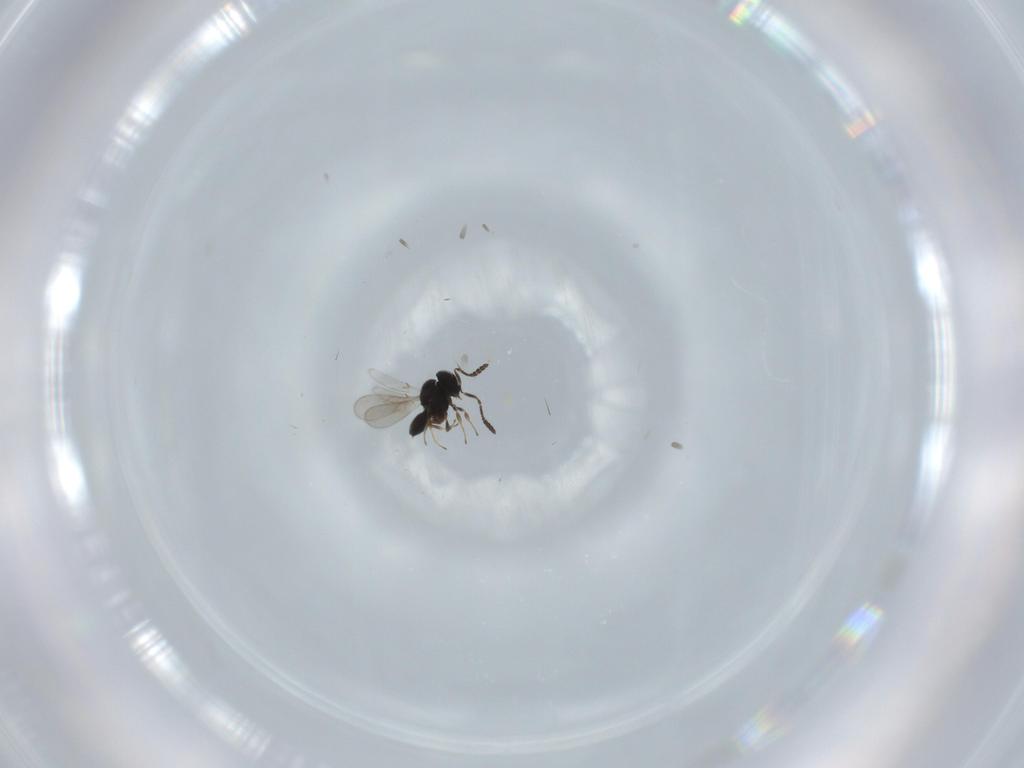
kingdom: Animalia
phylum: Arthropoda
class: Insecta
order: Hymenoptera
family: Scelionidae
